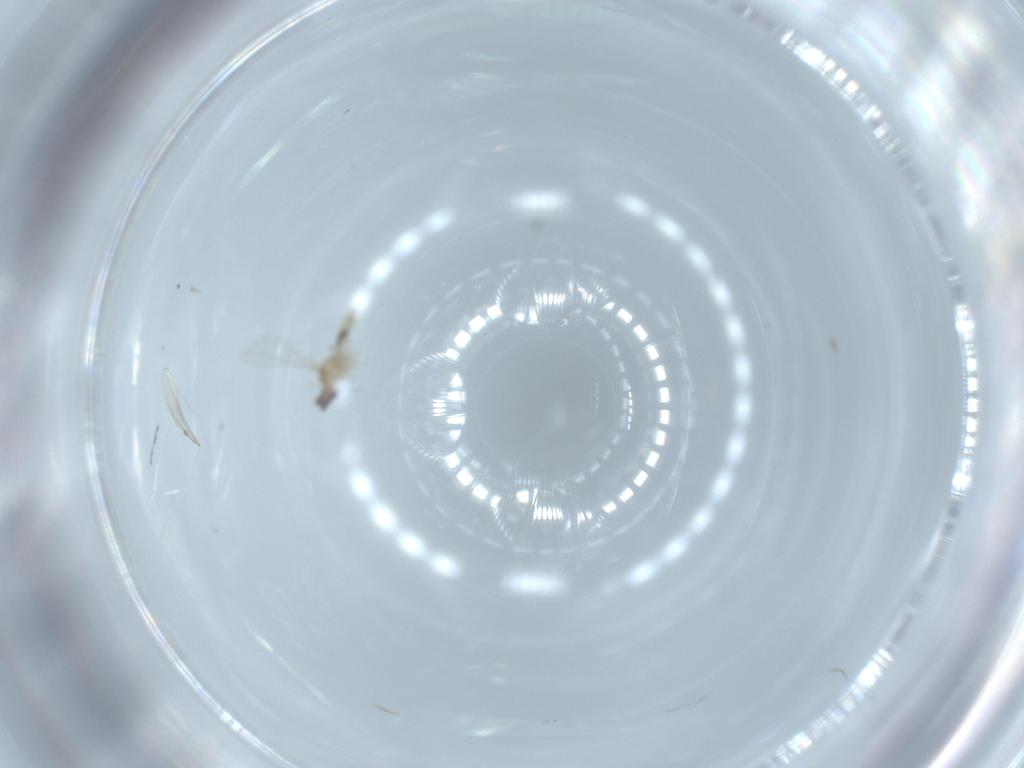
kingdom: Animalia
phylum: Arthropoda
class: Insecta
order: Diptera
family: Cecidomyiidae
